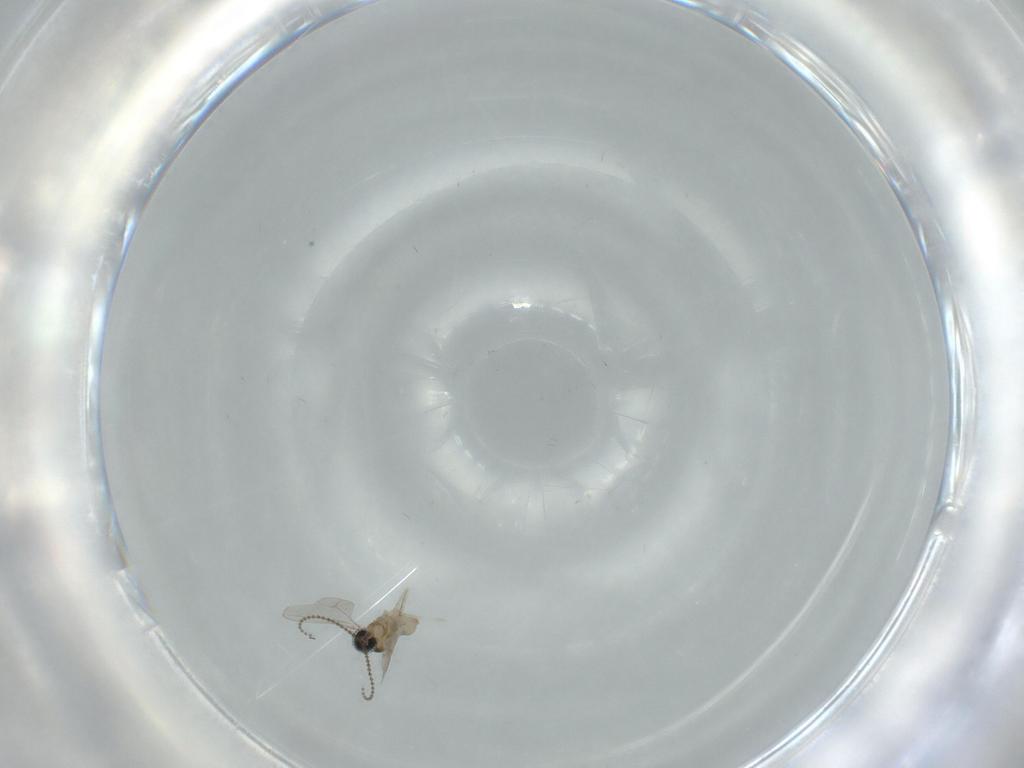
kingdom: Animalia
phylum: Arthropoda
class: Insecta
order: Diptera
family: Cecidomyiidae
